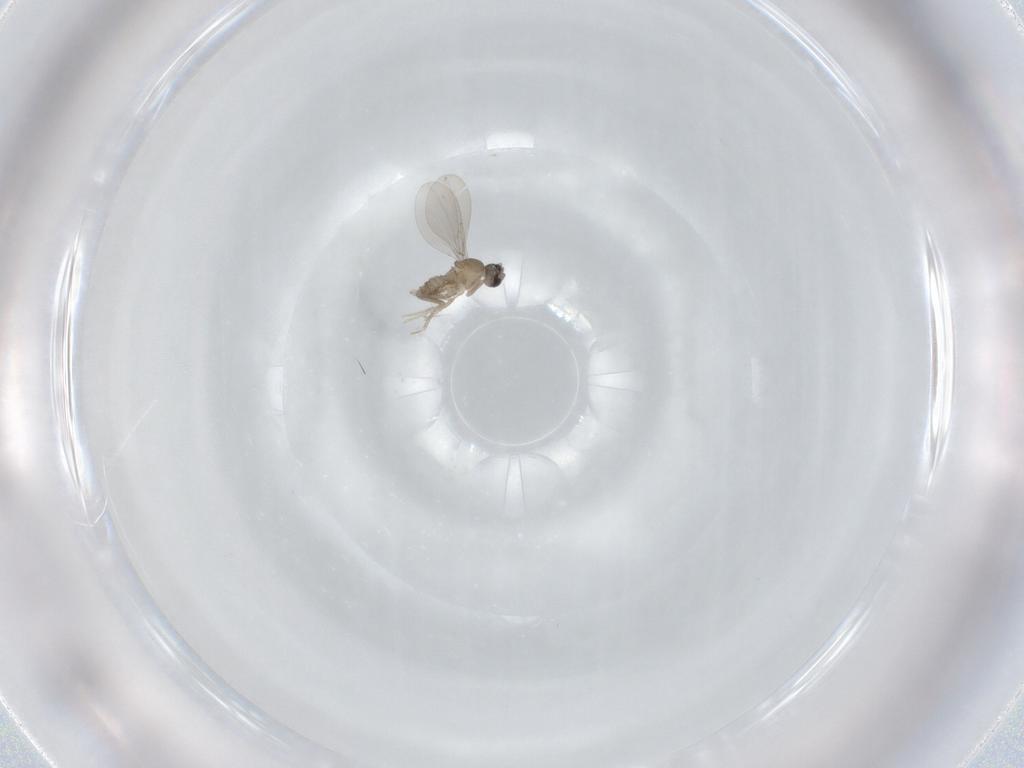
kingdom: Animalia
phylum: Arthropoda
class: Insecta
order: Diptera
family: Cecidomyiidae
